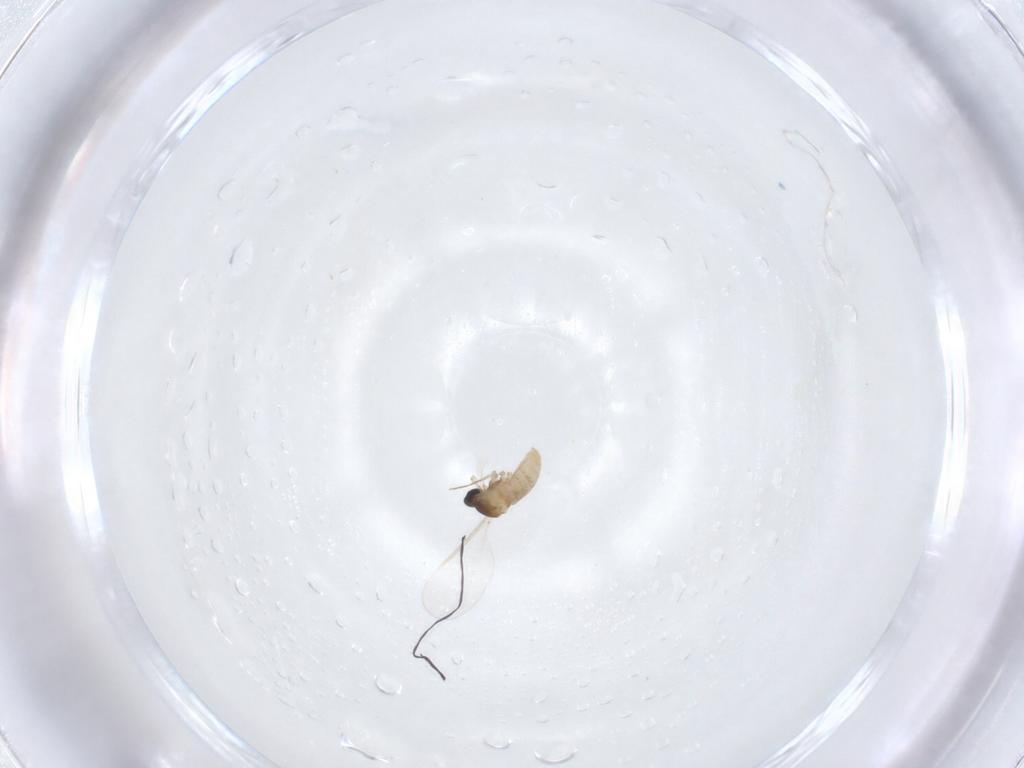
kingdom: Animalia
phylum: Arthropoda
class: Insecta
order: Diptera
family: Cecidomyiidae
